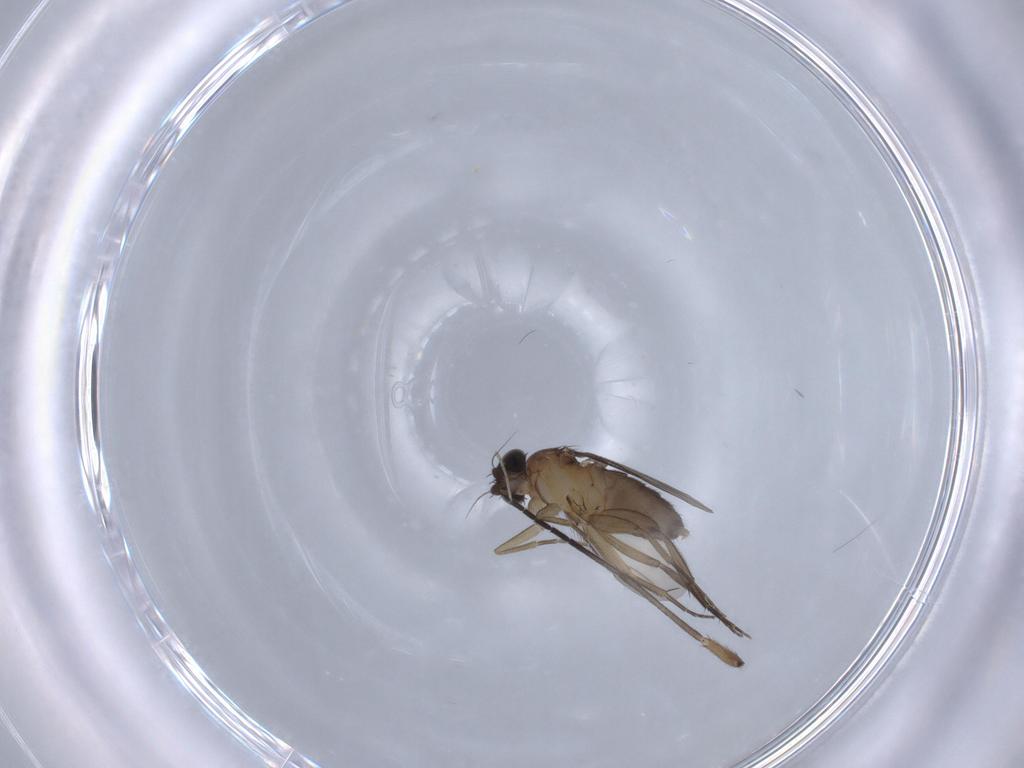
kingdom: Animalia
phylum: Arthropoda
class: Insecta
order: Diptera
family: Phoridae
